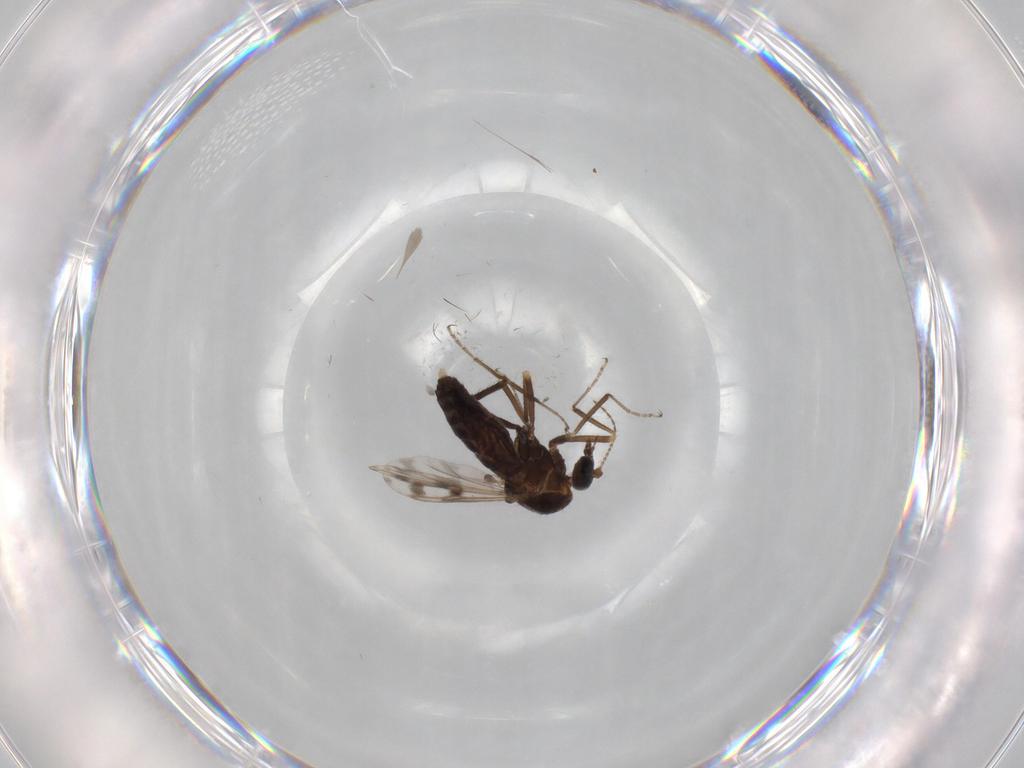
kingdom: Animalia
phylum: Arthropoda
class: Insecta
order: Diptera
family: Ceratopogonidae
